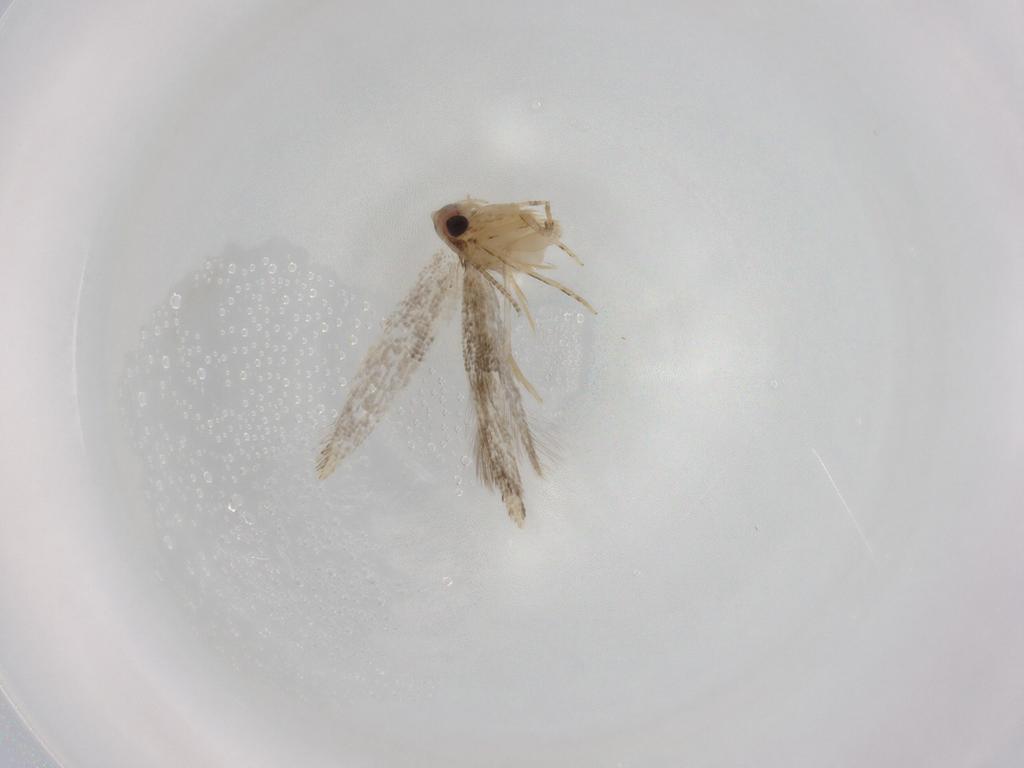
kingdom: Animalia
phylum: Arthropoda
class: Insecta
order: Lepidoptera
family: Tineidae
